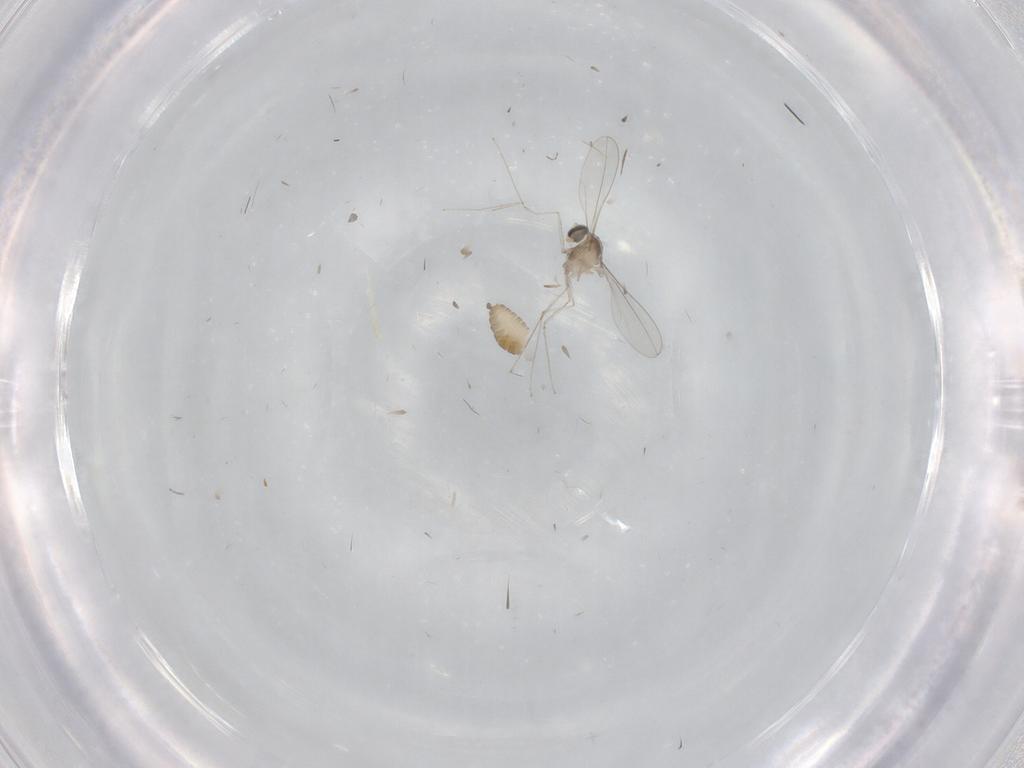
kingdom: Animalia
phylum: Arthropoda
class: Insecta
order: Diptera
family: Cecidomyiidae
